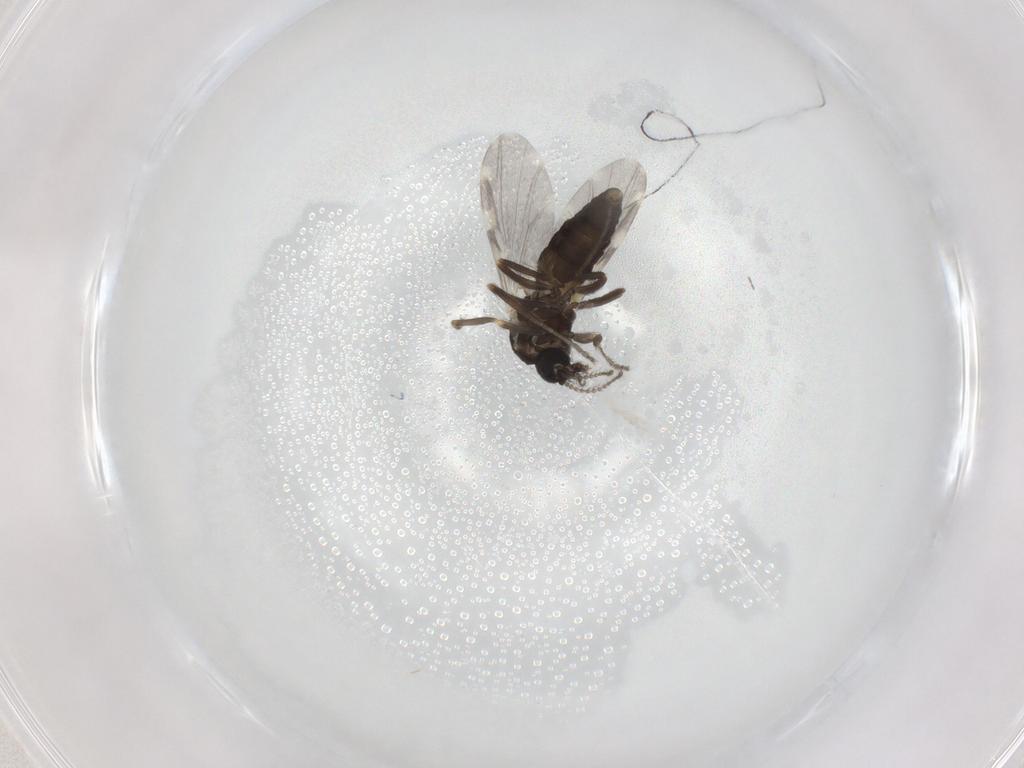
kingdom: Animalia
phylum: Arthropoda
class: Insecta
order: Diptera
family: Ceratopogonidae
